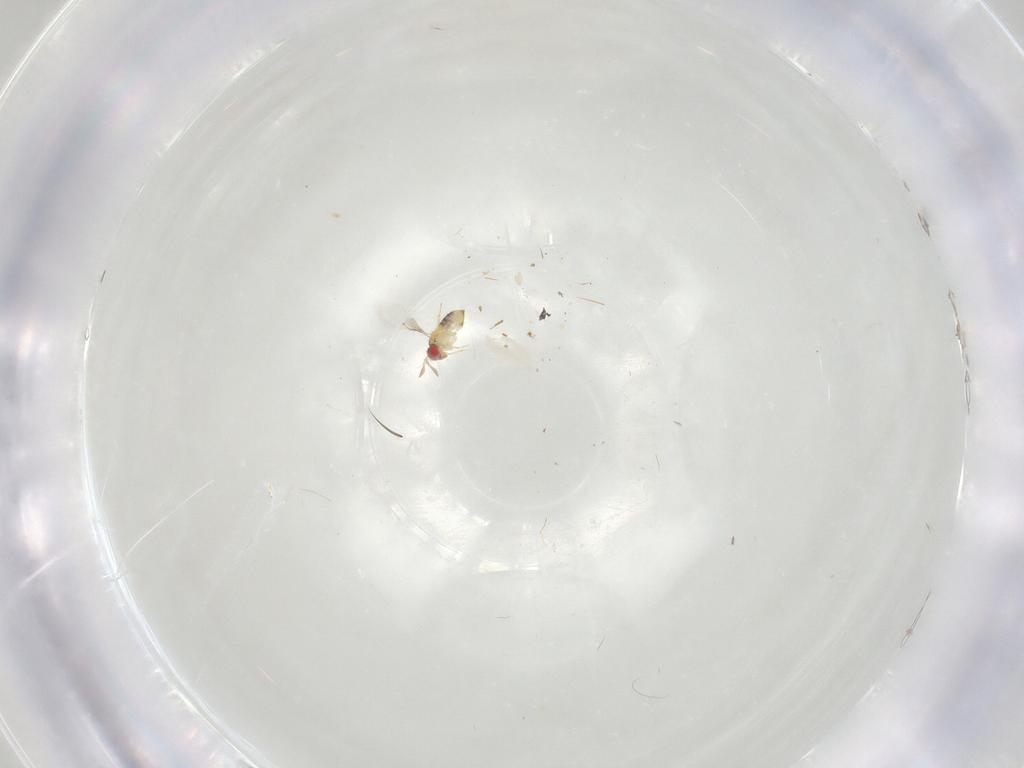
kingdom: Animalia
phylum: Arthropoda
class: Insecta
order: Hymenoptera
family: Trichogrammatidae
